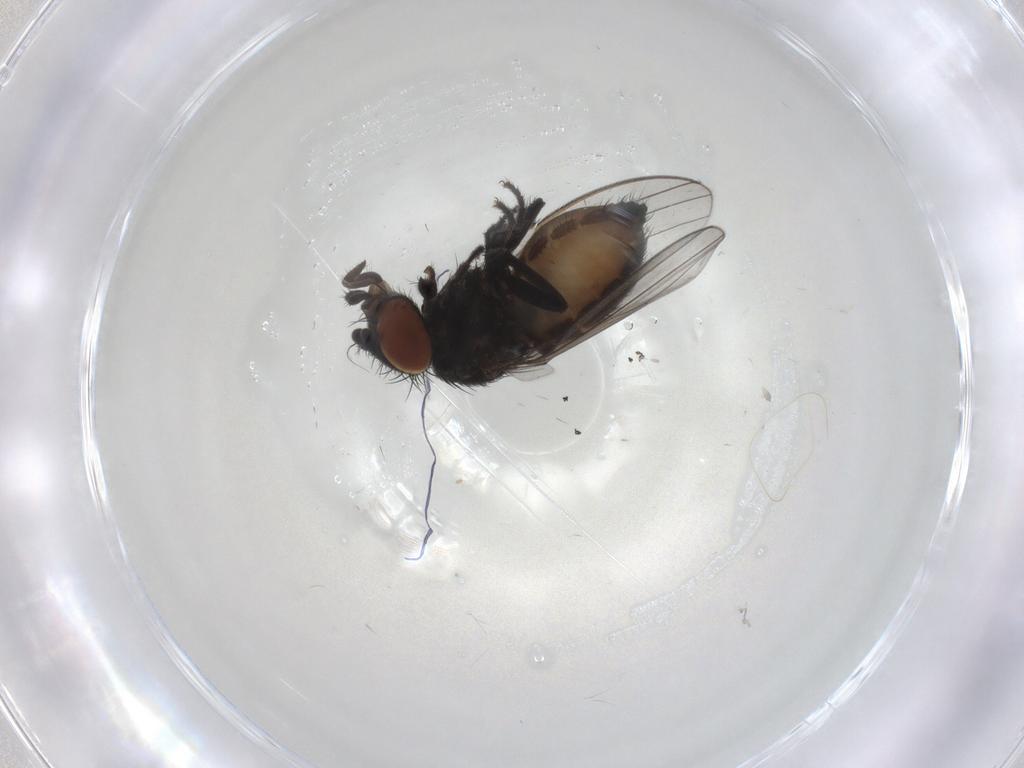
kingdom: Animalia
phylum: Arthropoda
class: Insecta
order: Diptera
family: Milichiidae
